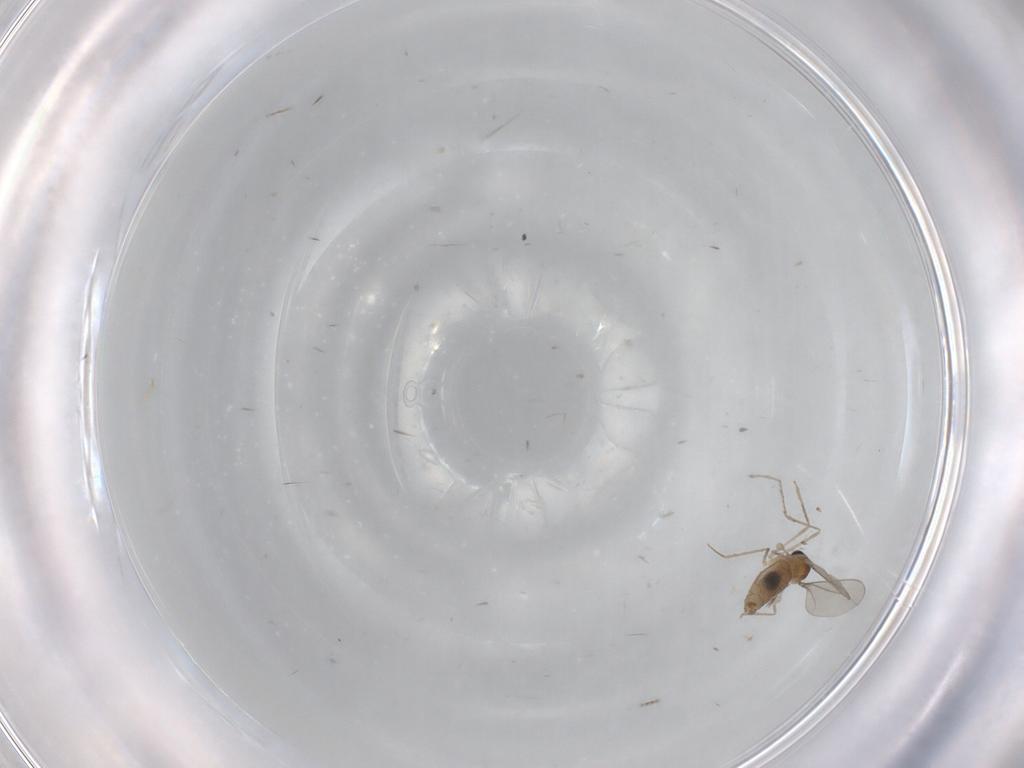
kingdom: Animalia
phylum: Arthropoda
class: Insecta
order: Diptera
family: Chironomidae
